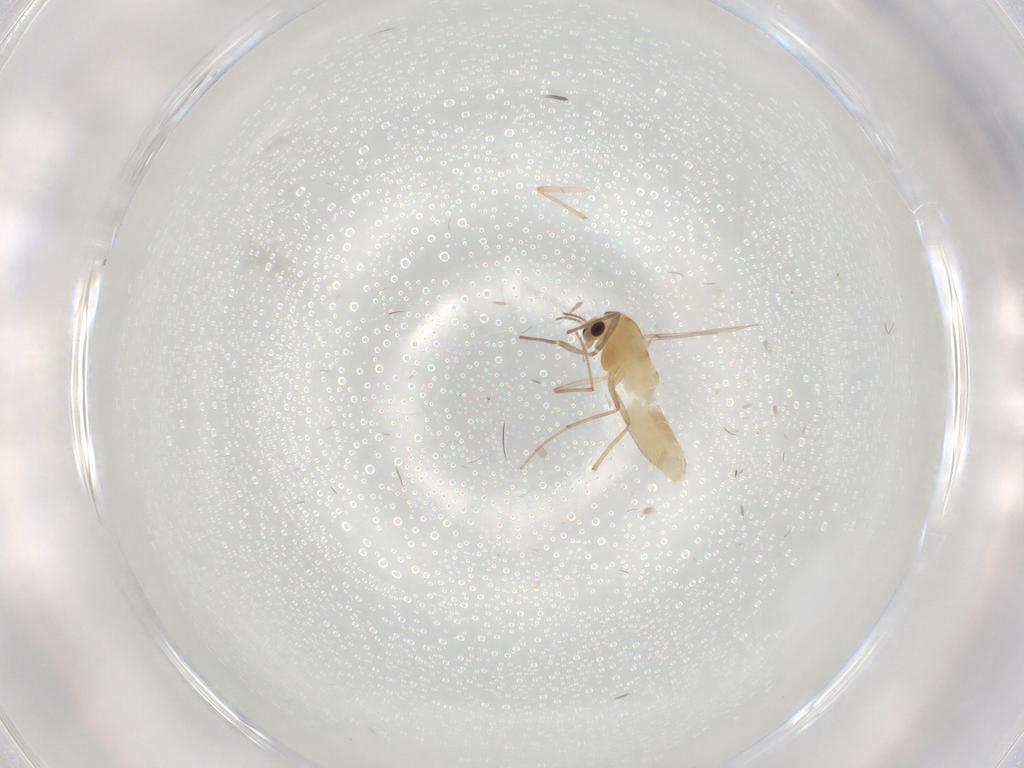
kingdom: Animalia
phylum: Arthropoda
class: Insecta
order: Diptera
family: Chironomidae
